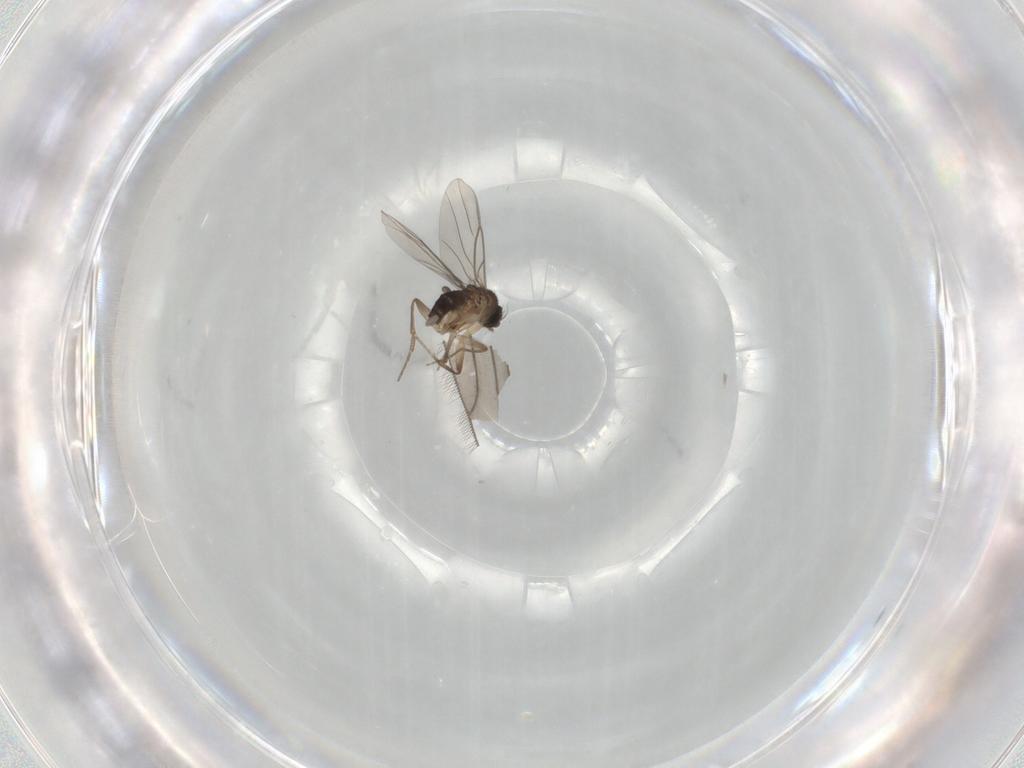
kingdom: Animalia
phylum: Arthropoda
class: Insecta
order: Diptera
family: Phoridae
